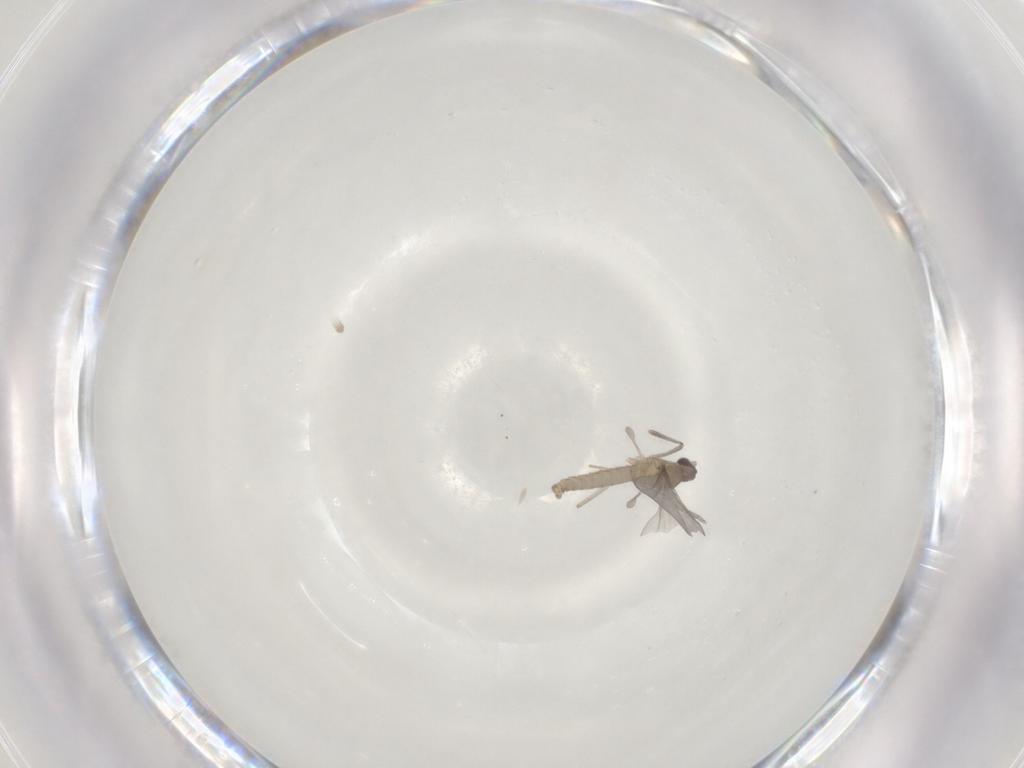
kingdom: Animalia
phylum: Arthropoda
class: Insecta
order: Diptera
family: Cecidomyiidae
